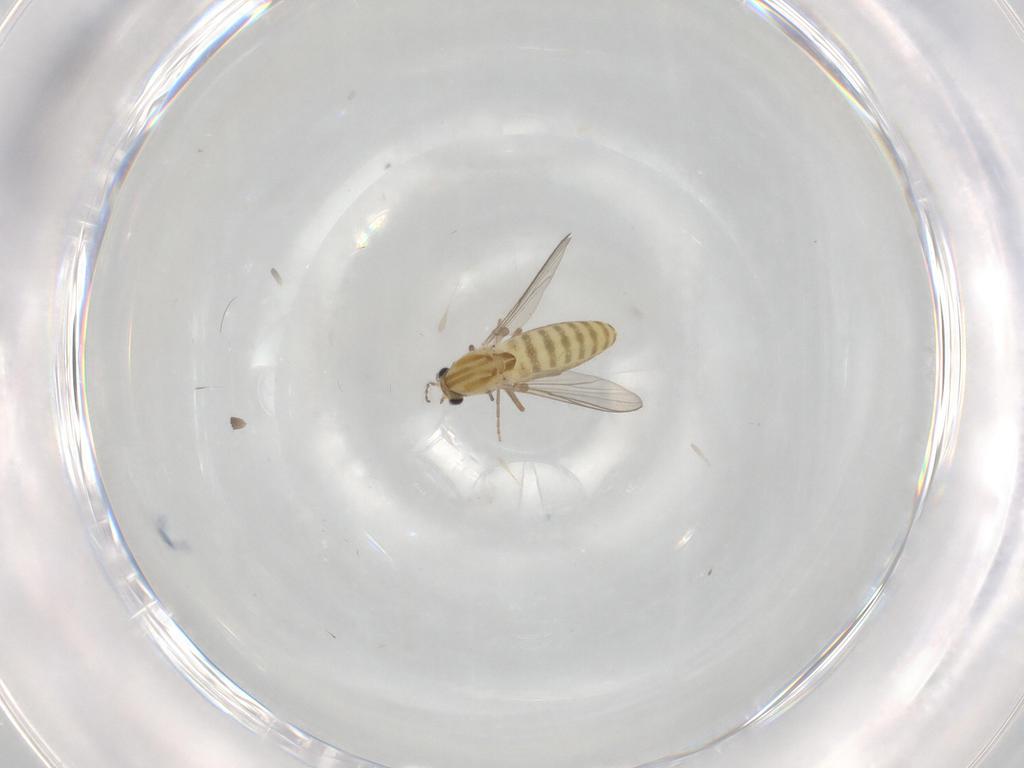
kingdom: Animalia
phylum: Arthropoda
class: Insecta
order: Diptera
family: Chironomidae
